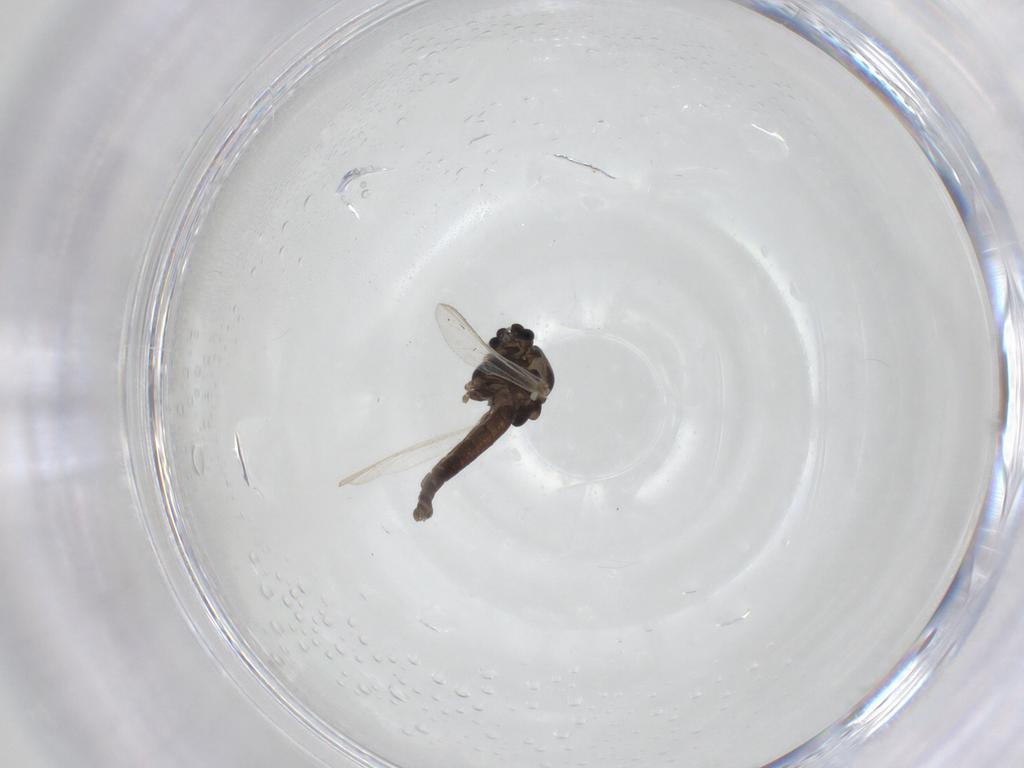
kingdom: Animalia
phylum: Arthropoda
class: Insecta
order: Diptera
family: Chironomidae
